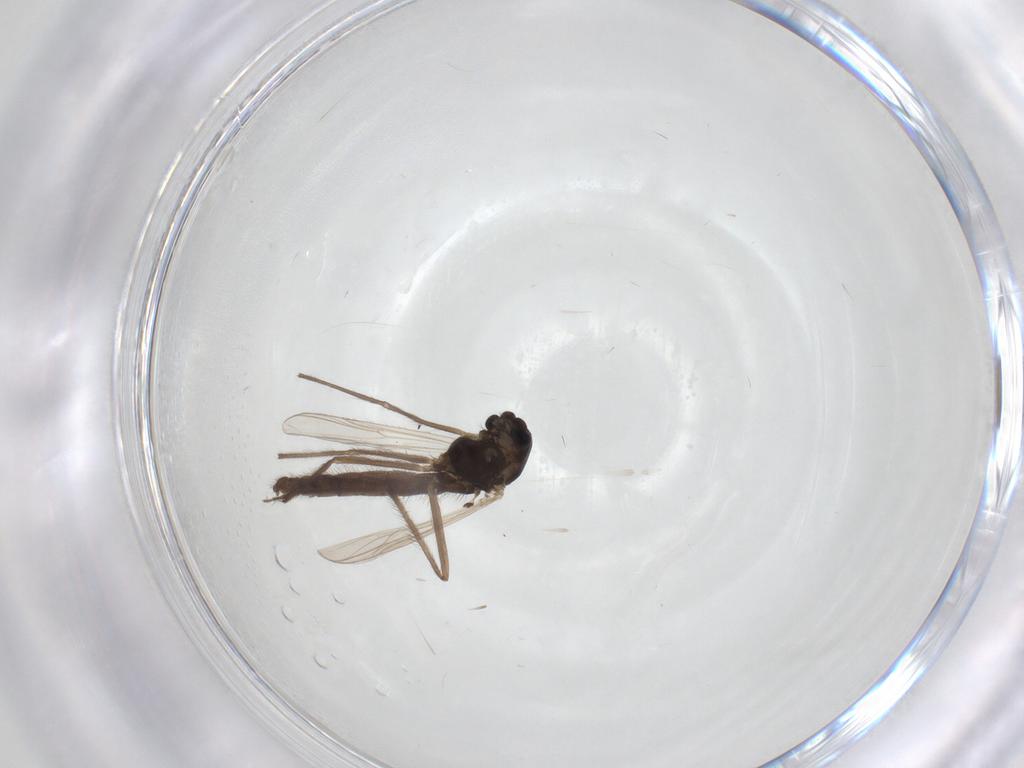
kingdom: Animalia
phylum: Arthropoda
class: Insecta
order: Diptera
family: Chironomidae
